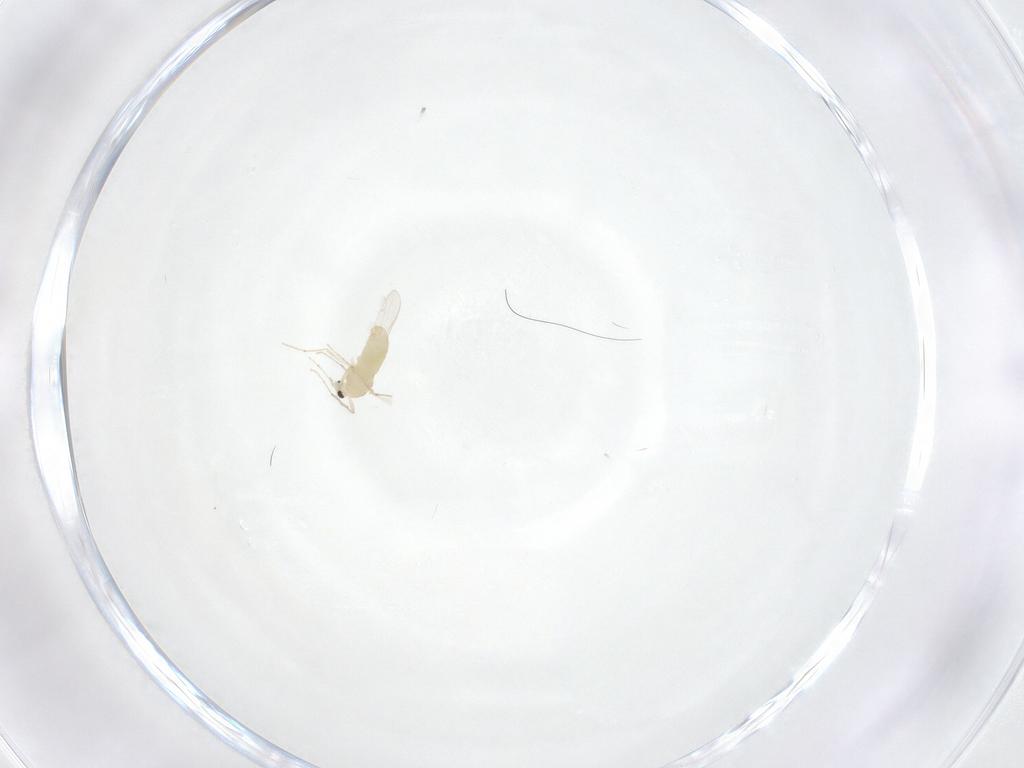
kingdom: Animalia
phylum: Arthropoda
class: Insecta
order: Diptera
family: Chironomidae
